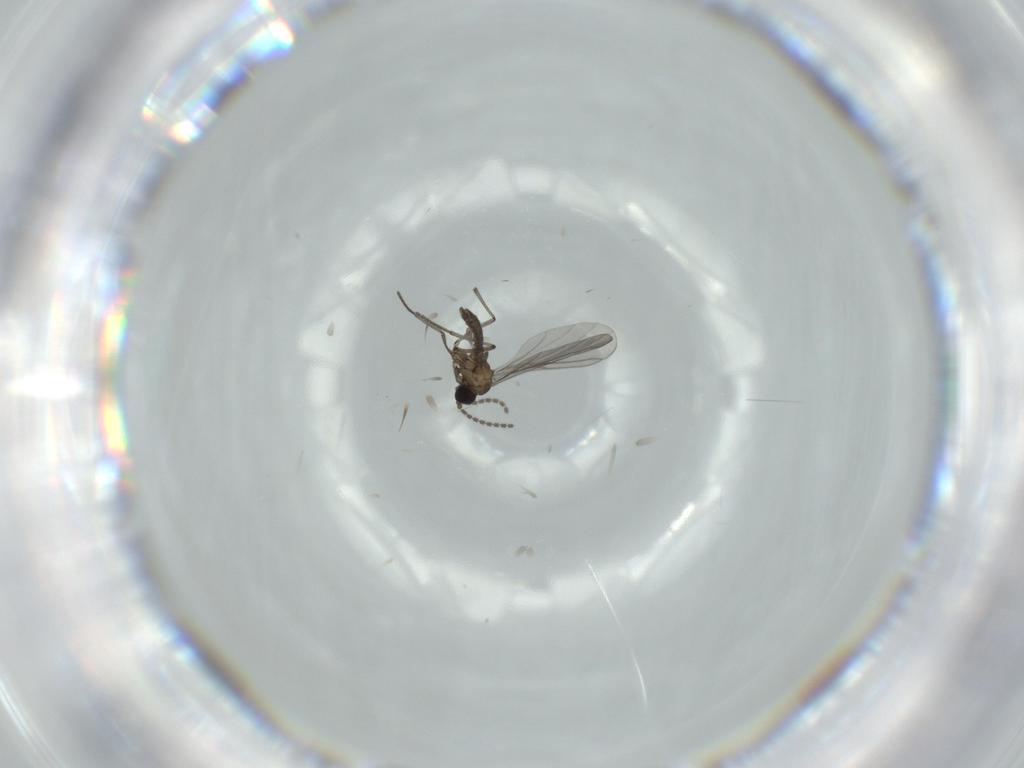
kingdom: Animalia
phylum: Arthropoda
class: Insecta
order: Diptera
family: Sciaridae
